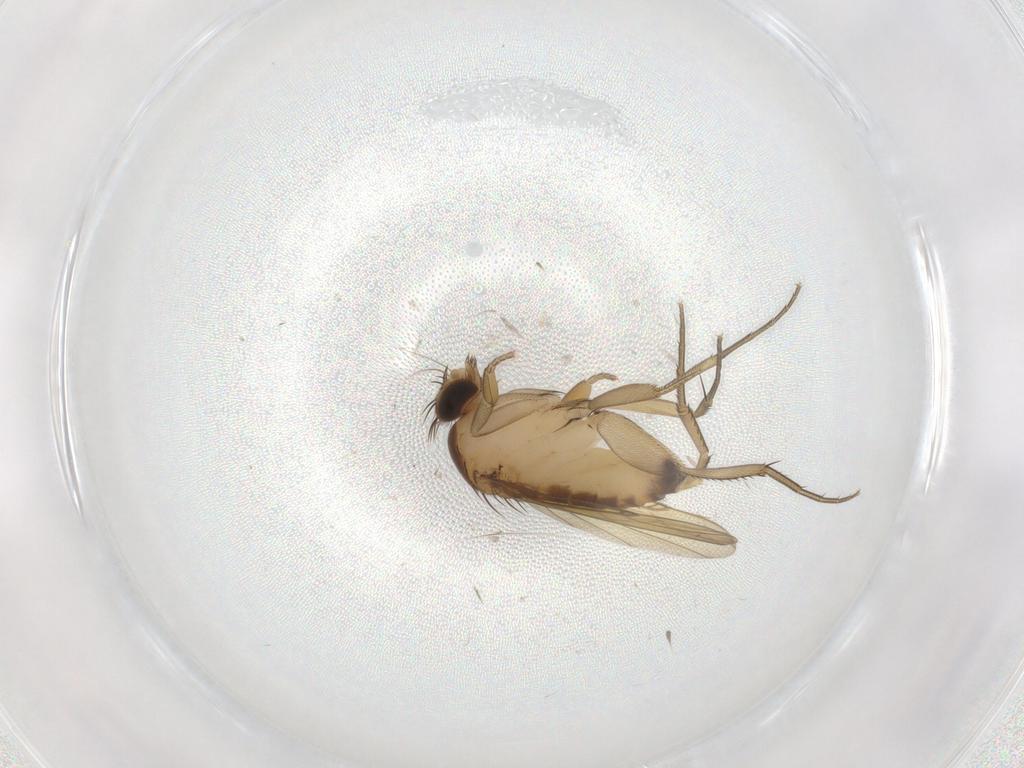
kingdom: Animalia
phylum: Arthropoda
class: Insecta
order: Diptera
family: Phoridae
